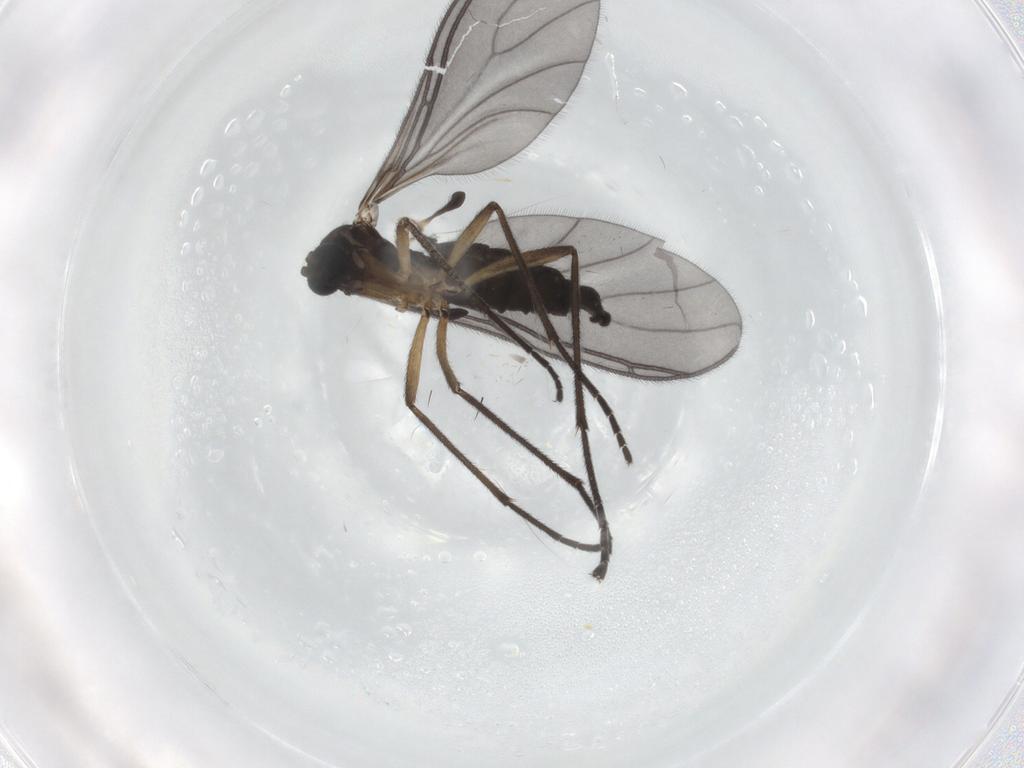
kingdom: Animalia
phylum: Arthropoda
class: Insecta
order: Diptera
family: Sciaridae
